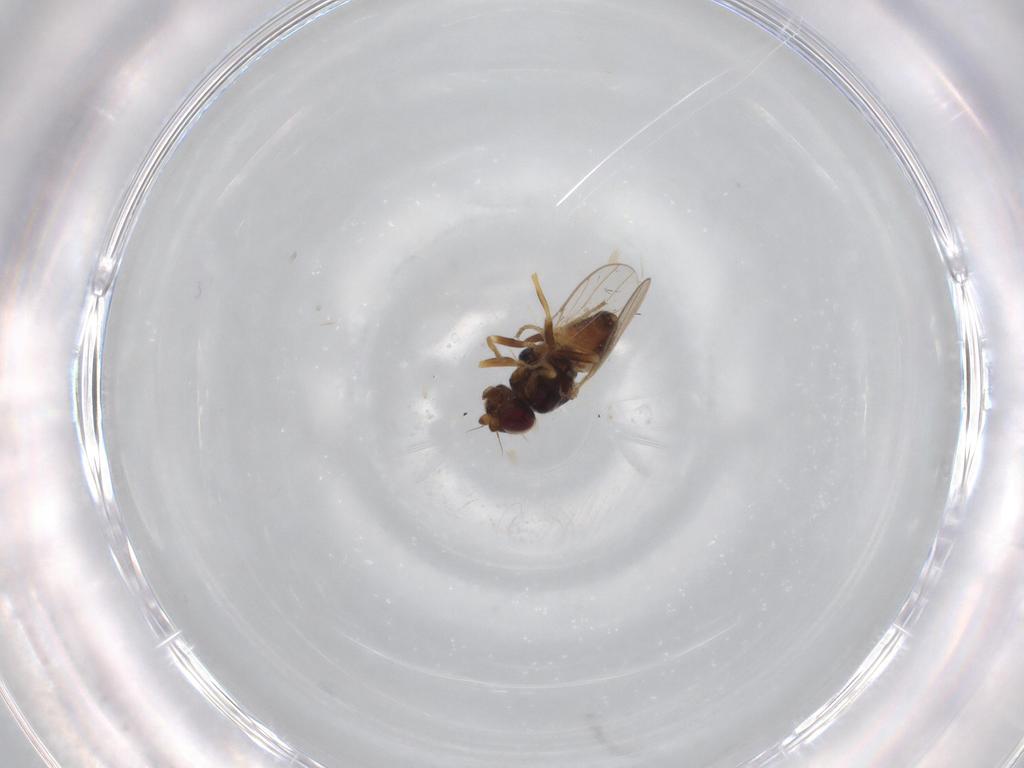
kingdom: Animalia
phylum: Arthropoda
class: Insecta
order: Diptera
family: Chloropidae
